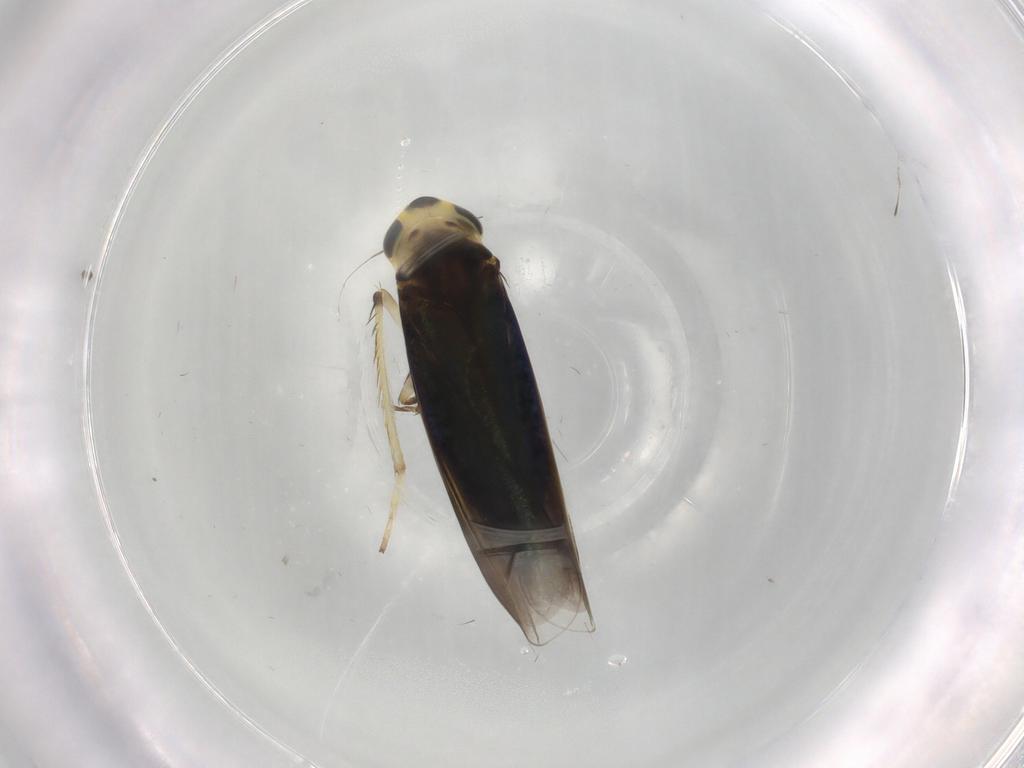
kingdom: Animalia
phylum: Arthropoda
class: Insecta
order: Hemiptera
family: Cicadellidae
